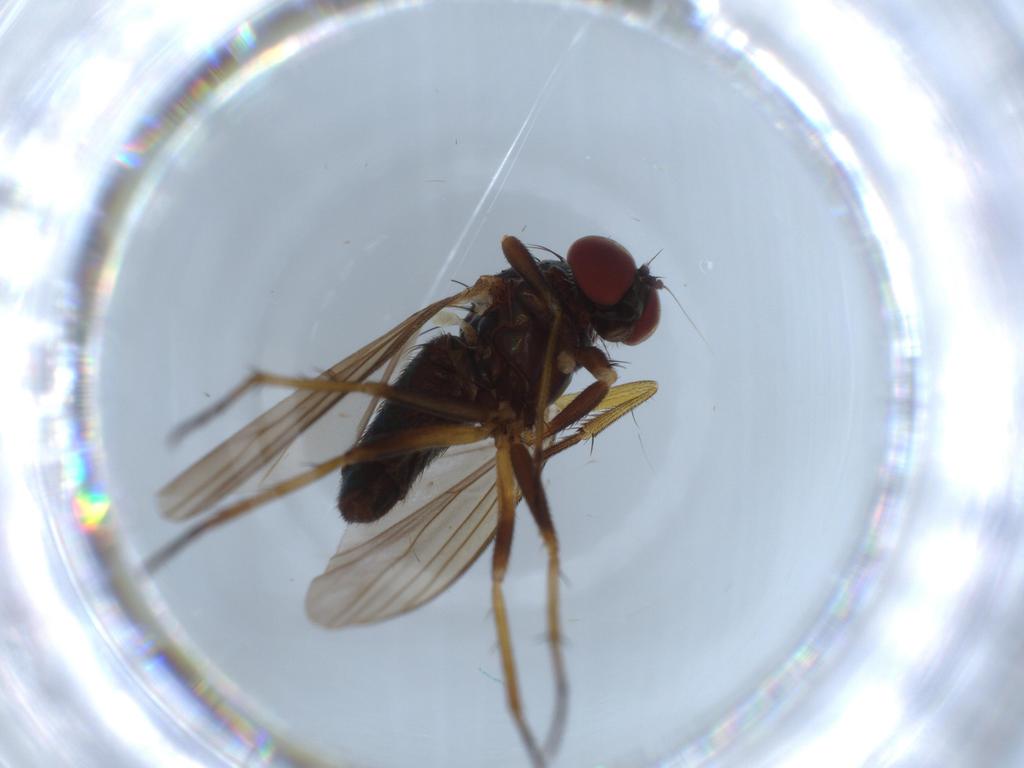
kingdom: Animalia
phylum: Arthropoda
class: Insecta
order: Diptera
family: Dolichopodidae
